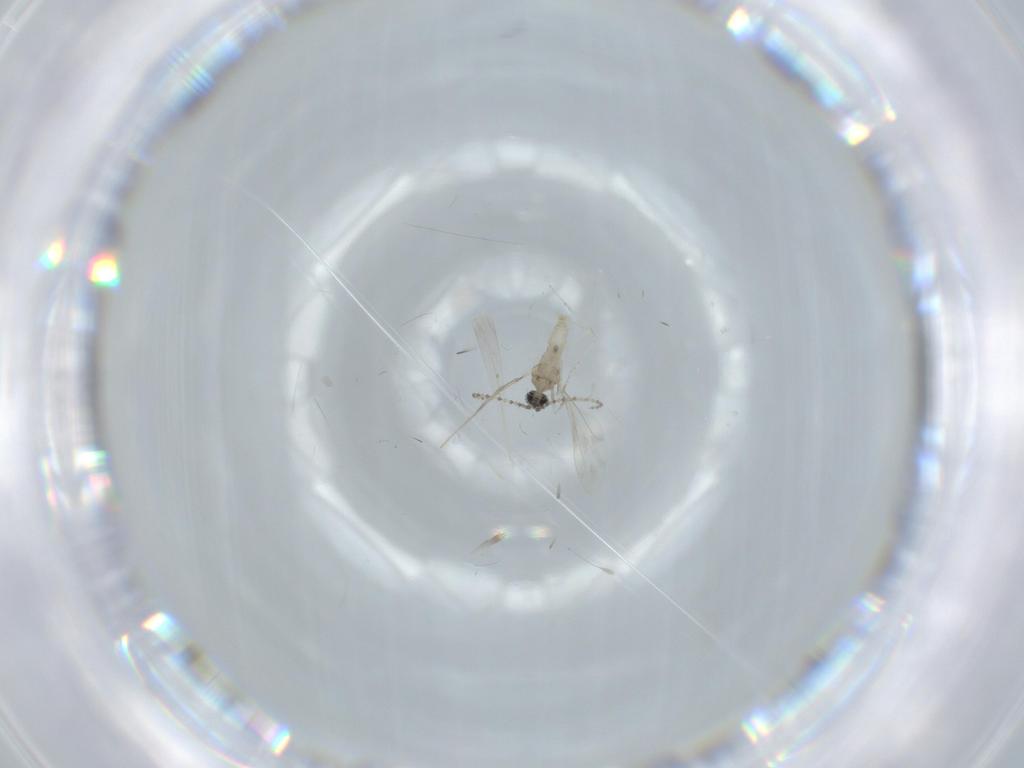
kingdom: Animalia
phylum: Arthropoda
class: Insecta
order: Diptera
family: Cecidomyiidae
